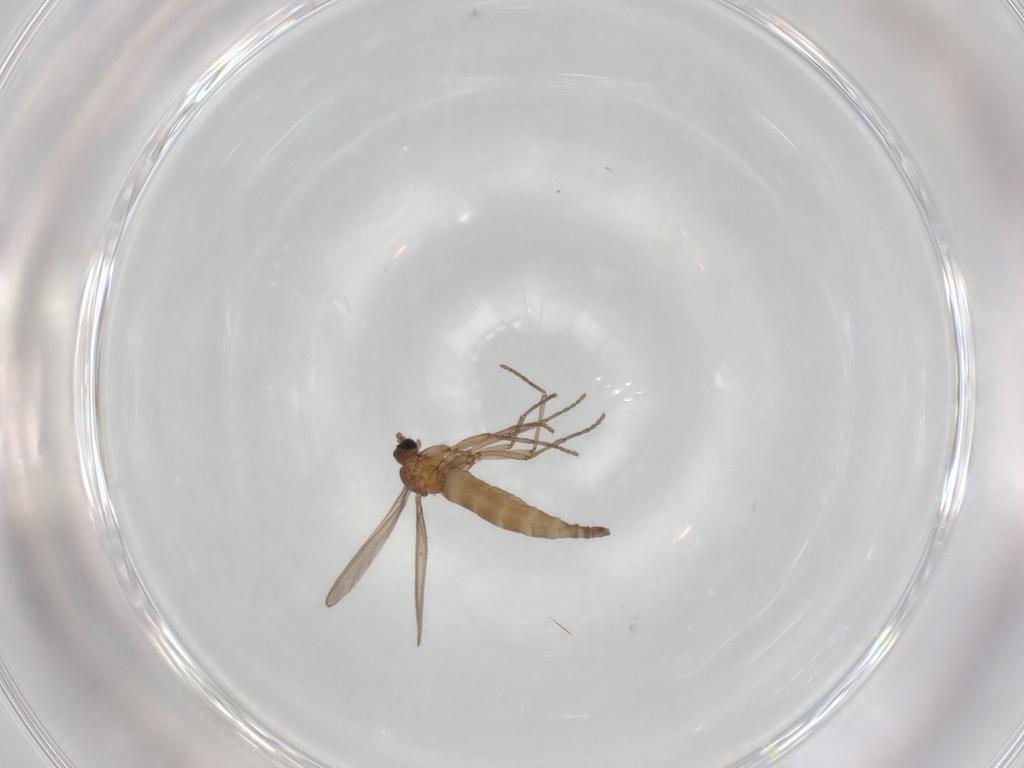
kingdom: Animalia
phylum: Arthropoda
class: Insecta
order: Diptera
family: Sciaridae
